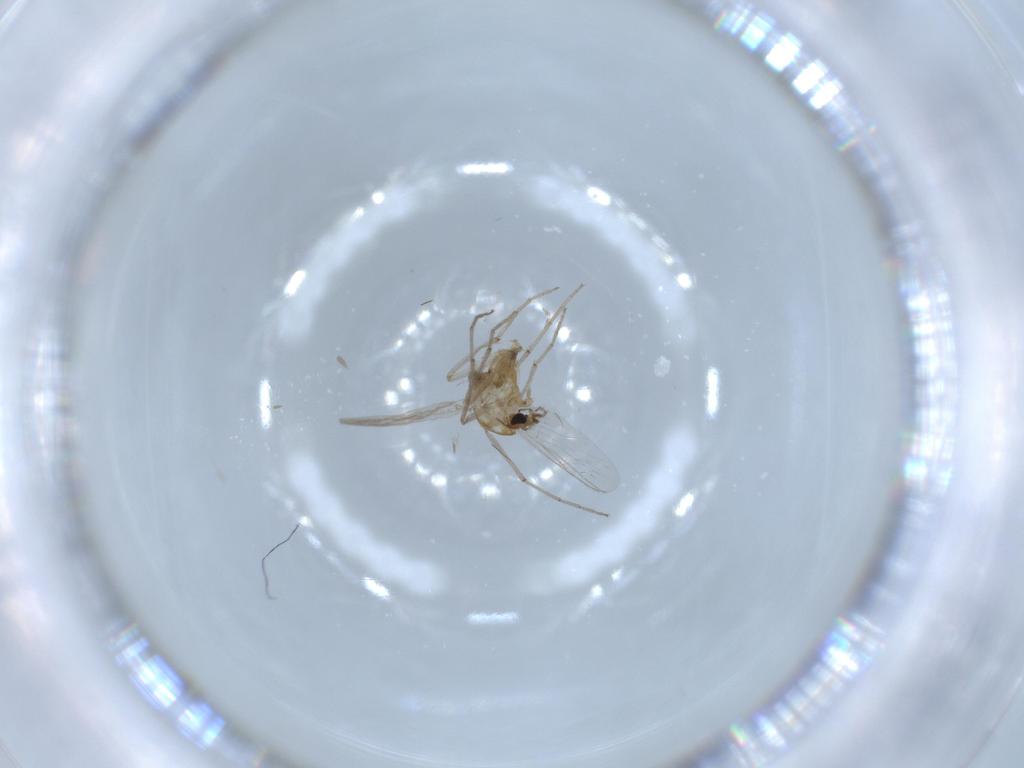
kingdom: Animalia
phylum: Arthropoda
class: Insecta
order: Diptera
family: Chironomidae
